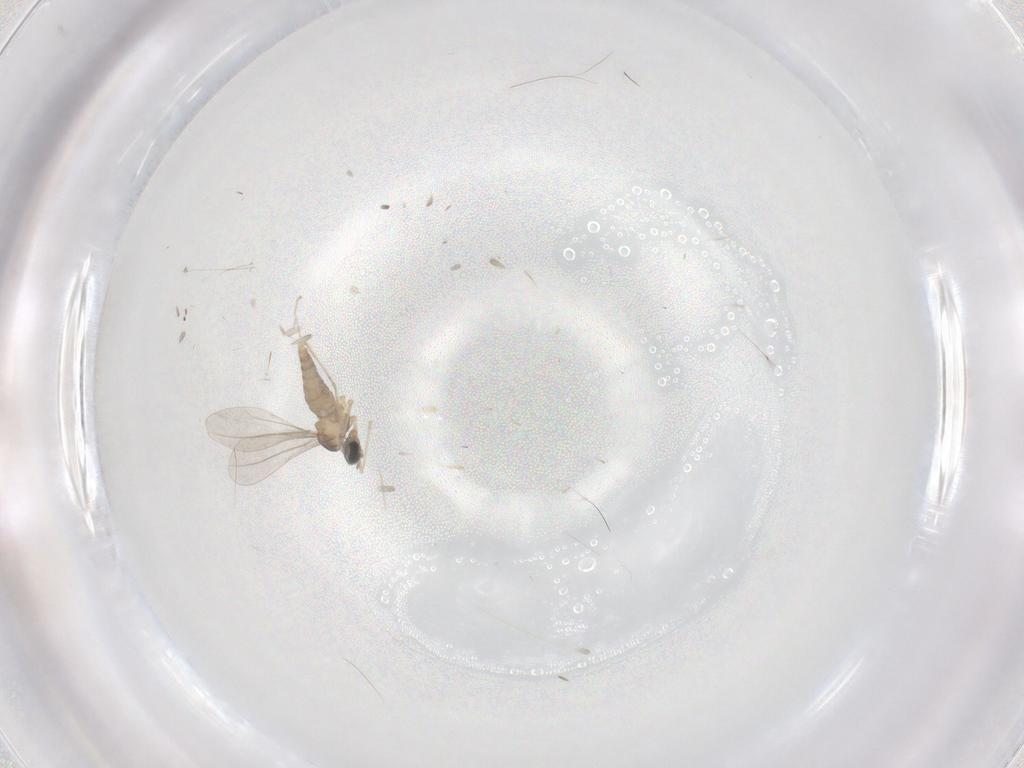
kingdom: Animalia
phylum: Arthropoda
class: Insecta
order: Diptera
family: Cecidomyiidae
